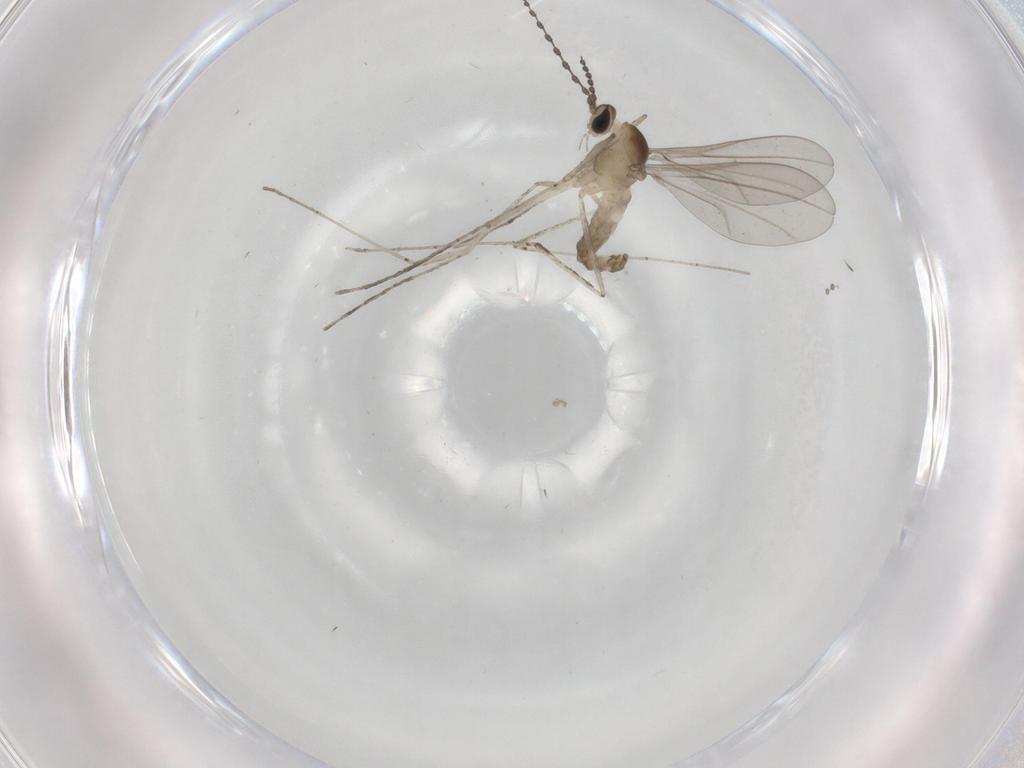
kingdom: Animalia
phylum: Arthropoda
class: Insecta
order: Diptera
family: Cecidomyiidae
